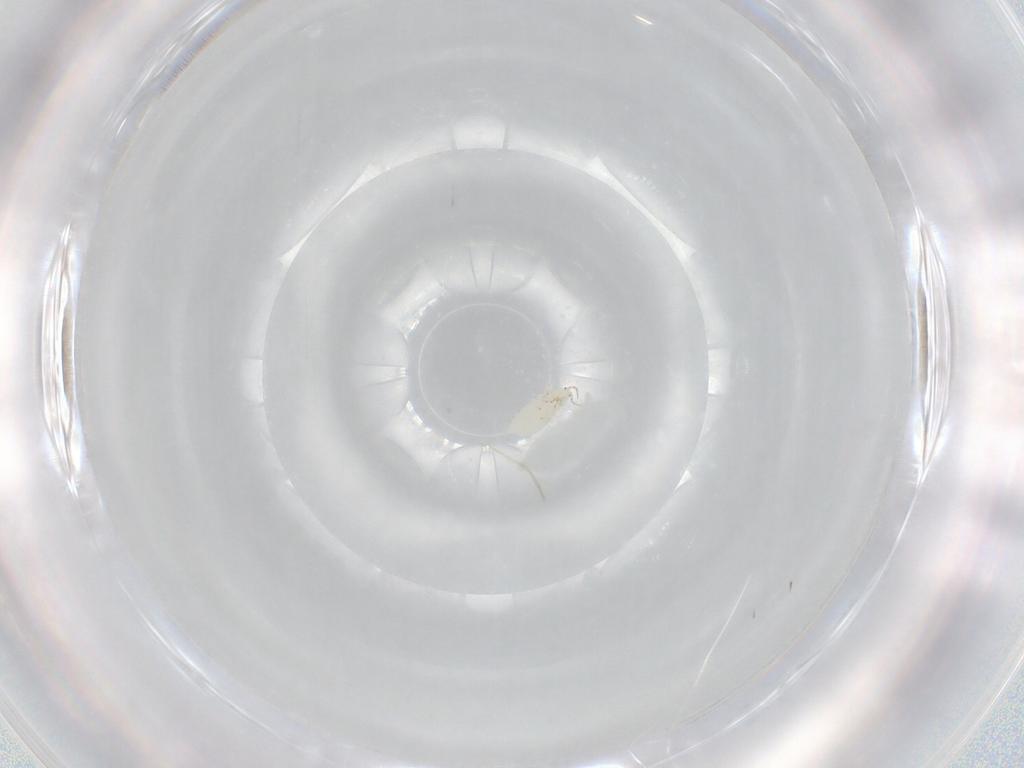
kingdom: Animalia
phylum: Arthropoda
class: Insecta
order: Thysanoptera
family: Thripidae
